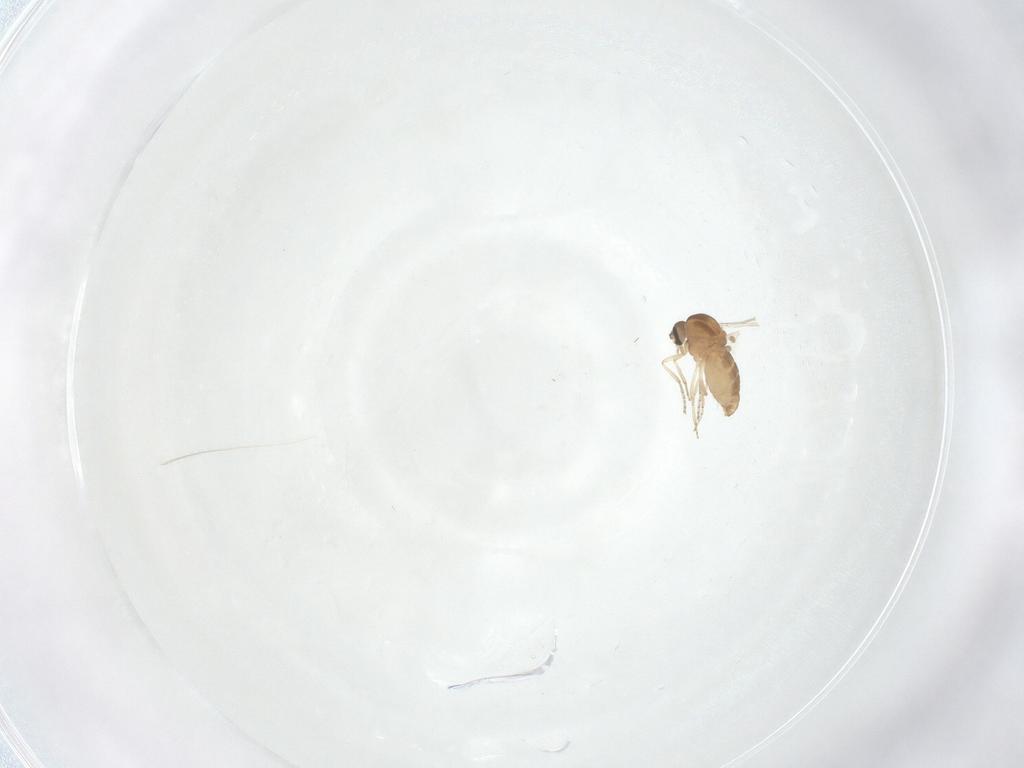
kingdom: Animalia
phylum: Arthropoda
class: Insecta
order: Diptera
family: Ceratopogonidae
